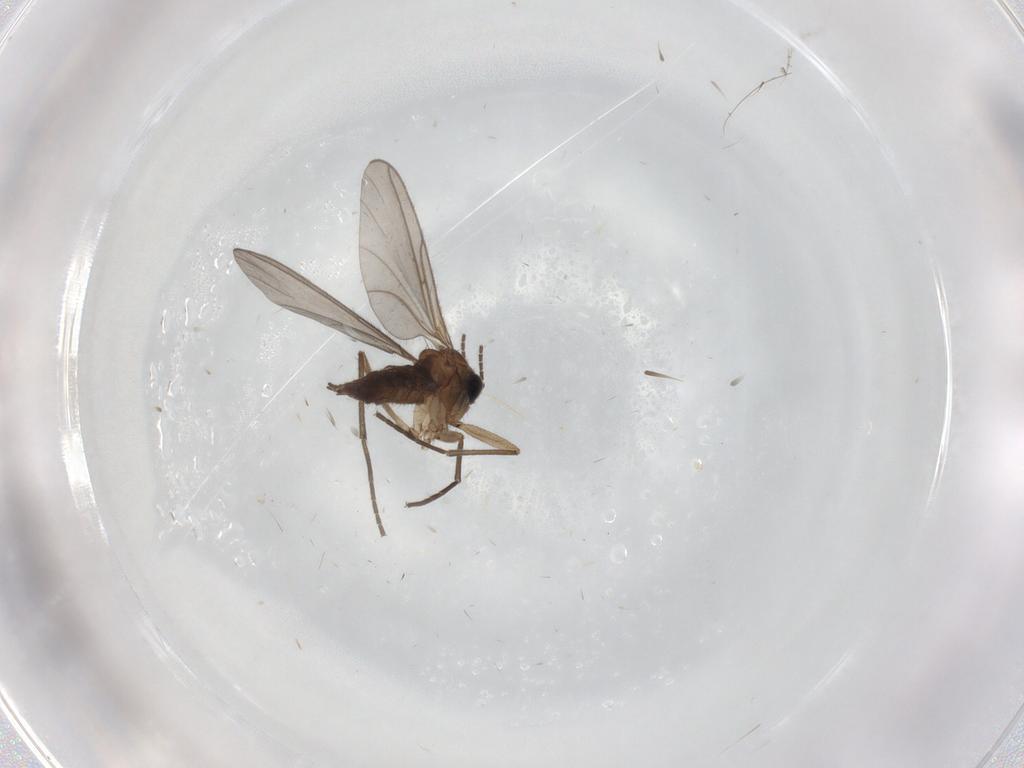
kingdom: Animalia
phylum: Arthropoda
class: Insecta
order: Diptera
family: Sciaridae
